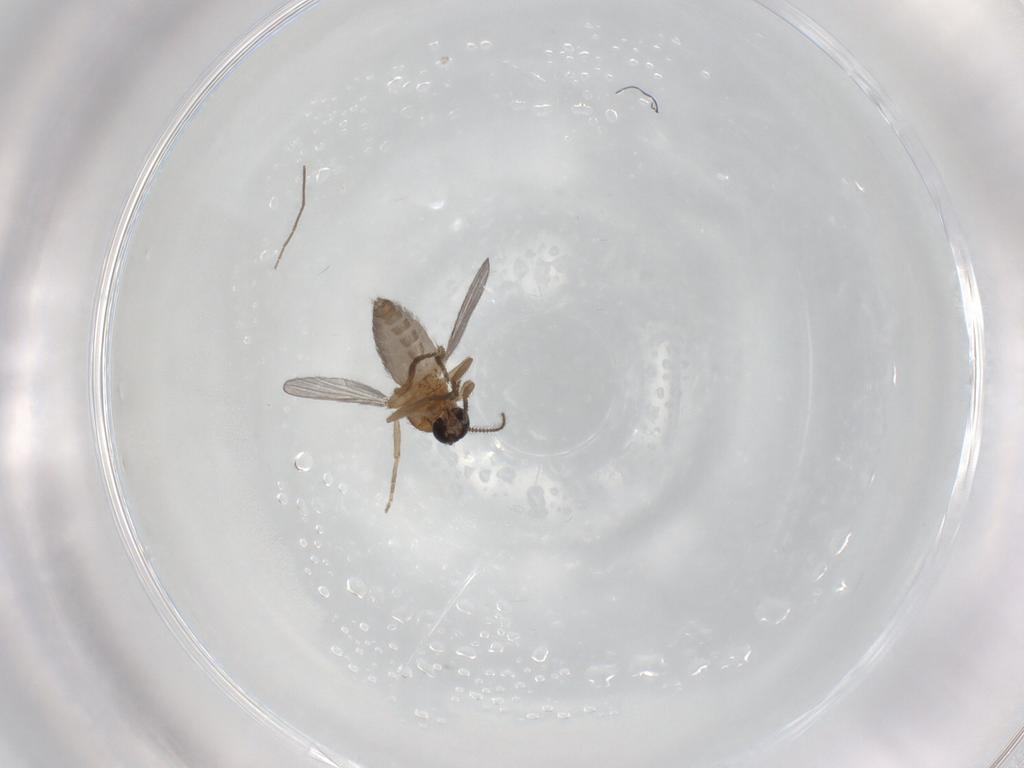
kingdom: Animalia
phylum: Arthropoda
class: Insecta
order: Diptera
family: Ceratopogonidae
